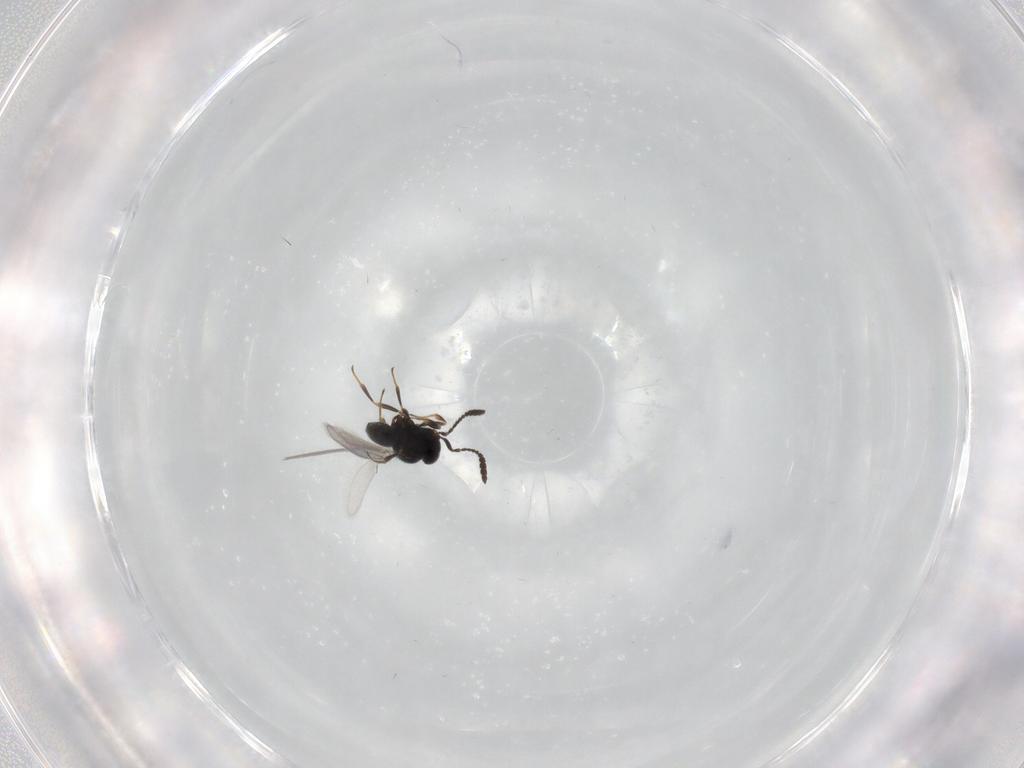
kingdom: Animalia
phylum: Arthropoda
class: Insecta
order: Hymenoptera
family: Scelionidae
